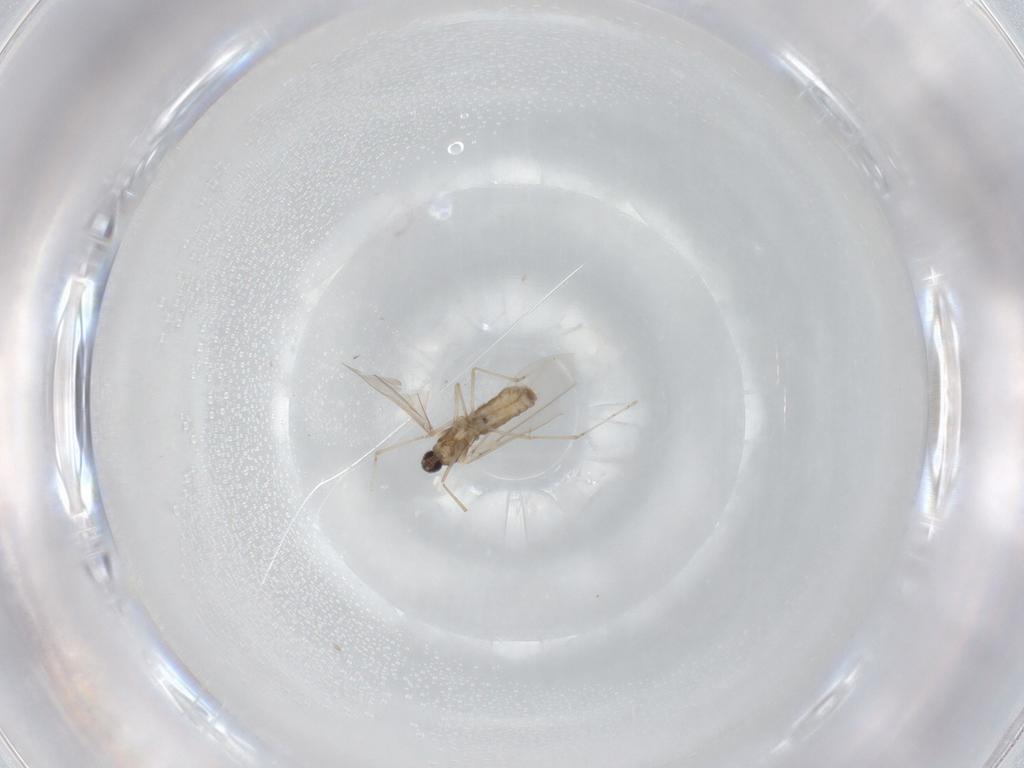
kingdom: Animalia
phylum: Arthropoda
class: Insecta
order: Diptera
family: Cecidomyiidae
